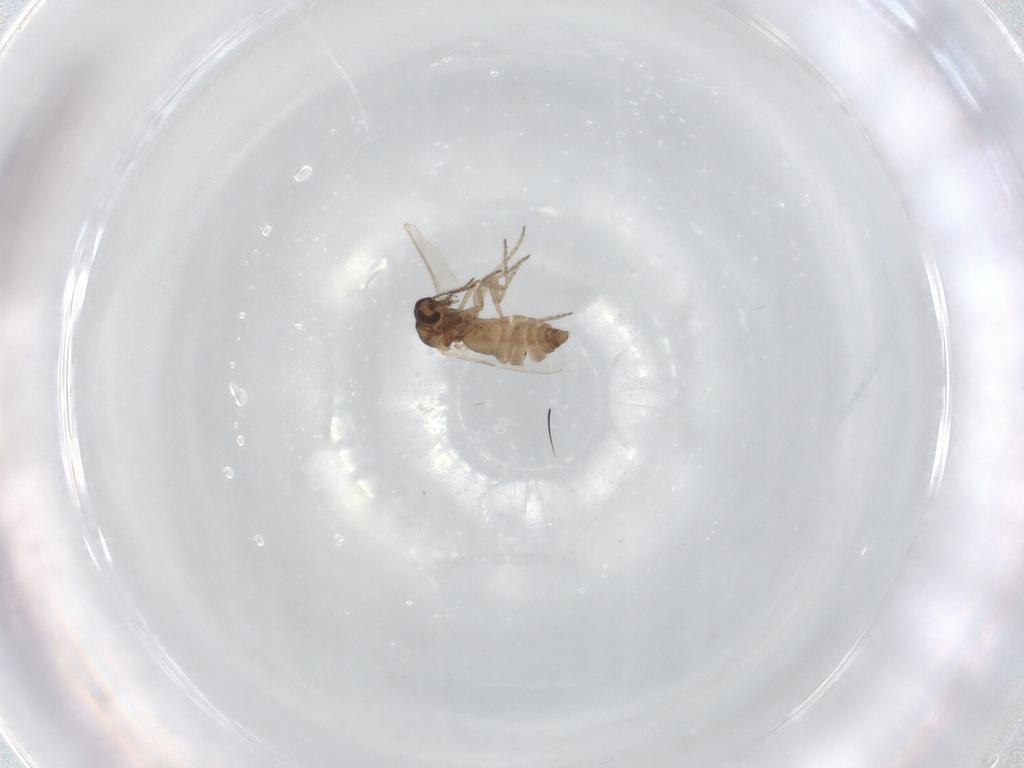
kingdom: Animalia
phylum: Arthropoda
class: Insecta
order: Diptera
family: Ceratopogonidae
